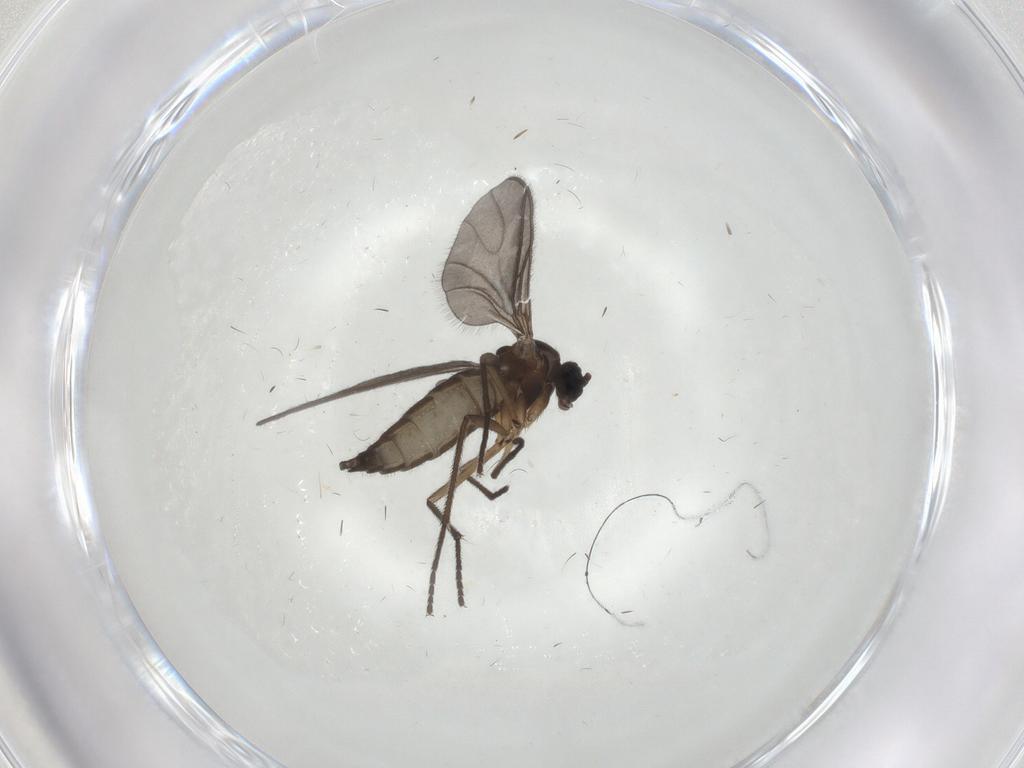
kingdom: Animalia
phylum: Arthropoda
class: Insecta
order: Diptera
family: Sciaridae
